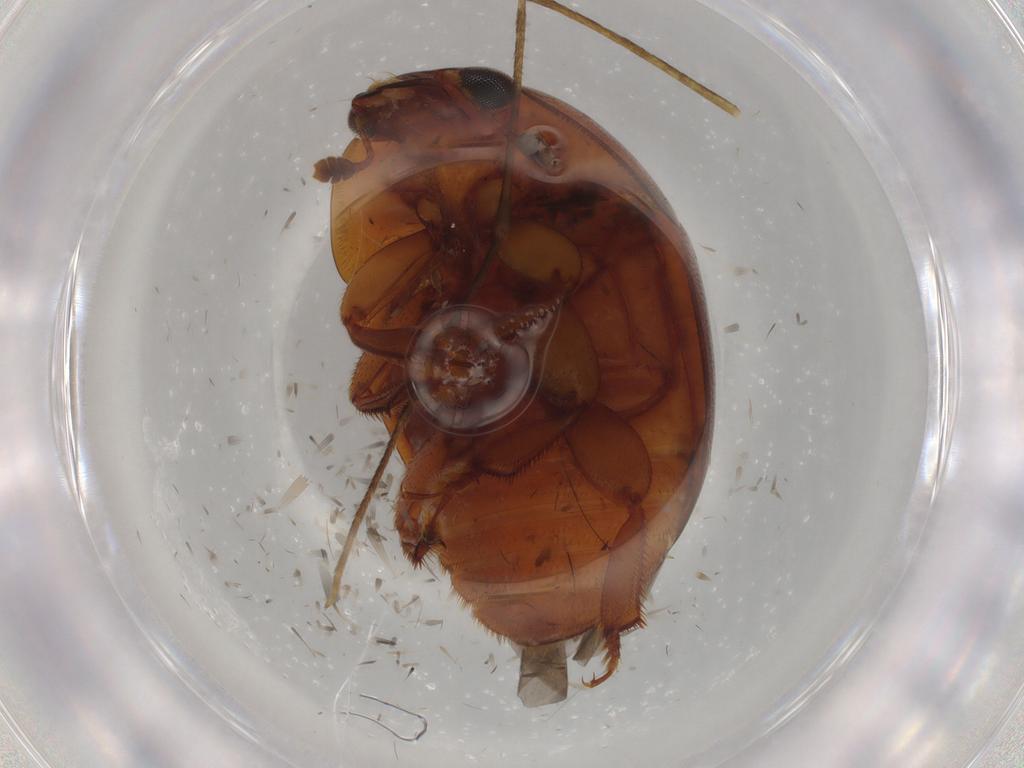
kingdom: Animalia
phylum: Arthropoda
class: Insecta
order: Coleoptera
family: Nitidulidae
